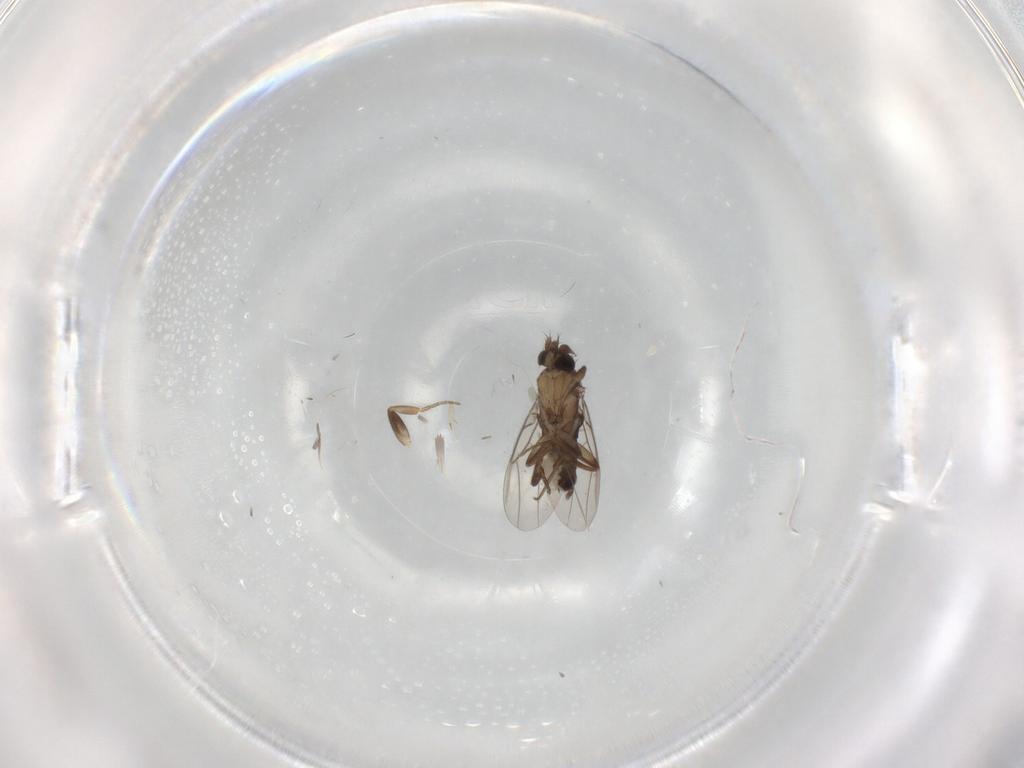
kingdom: Animalia
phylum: Arthropoda
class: Insecta
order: Diptera
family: Phoridae
